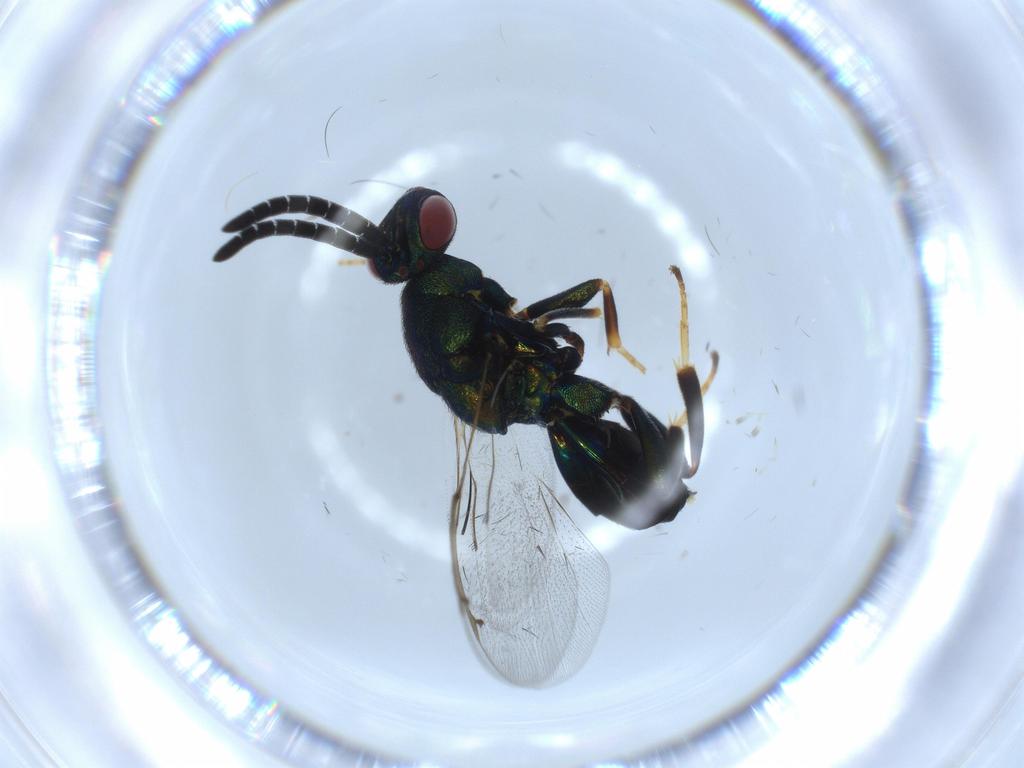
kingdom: Animalia
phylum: Arthropoda
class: Insecta
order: Hymenoptera
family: Torymidae
